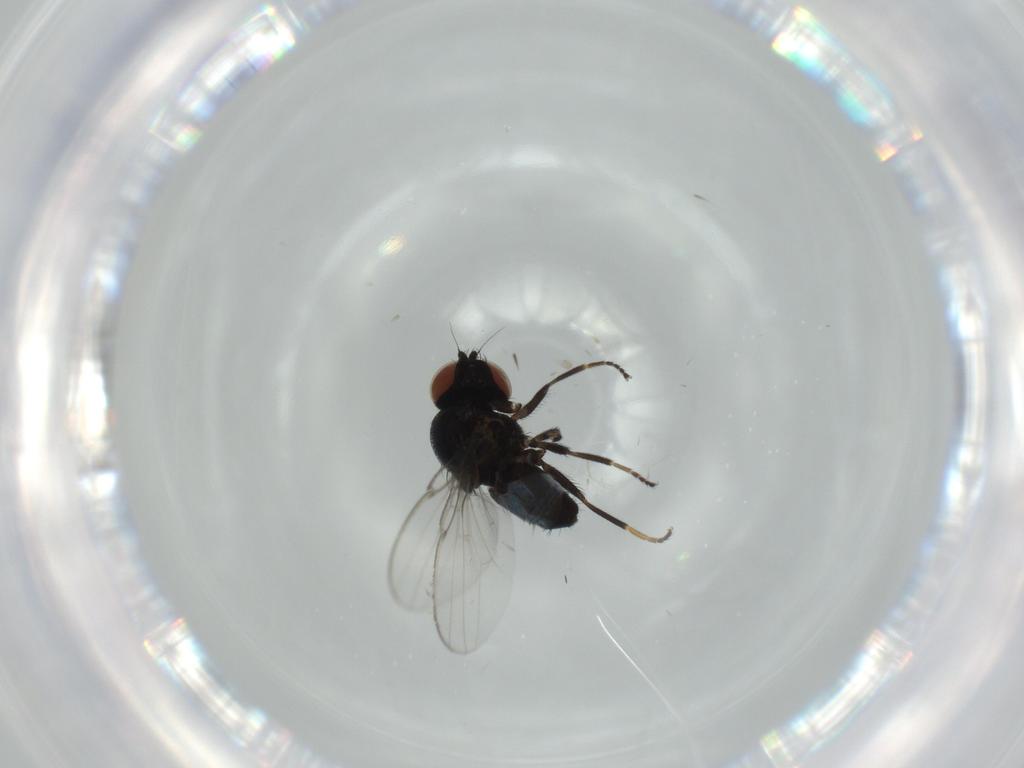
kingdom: Animalia
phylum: Arthropoda
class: Insecta
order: Diptera
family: Milichiidae
